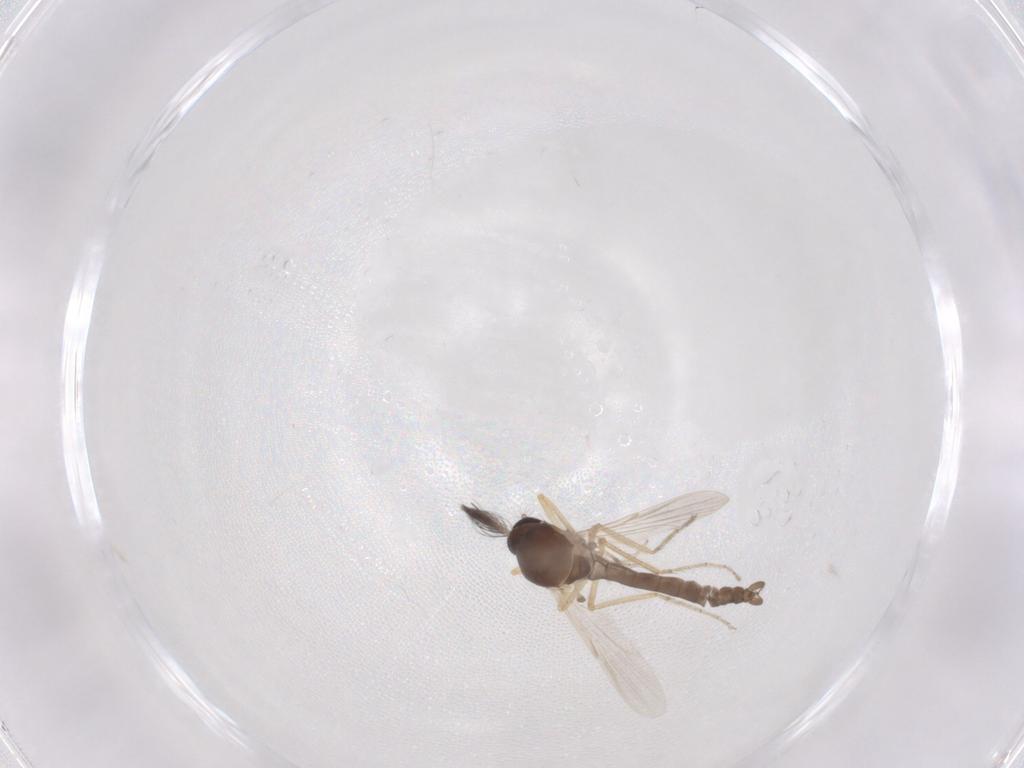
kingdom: Animalia
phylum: Arthropoda
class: Insecta
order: Diptera
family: Ceratopogonidae
